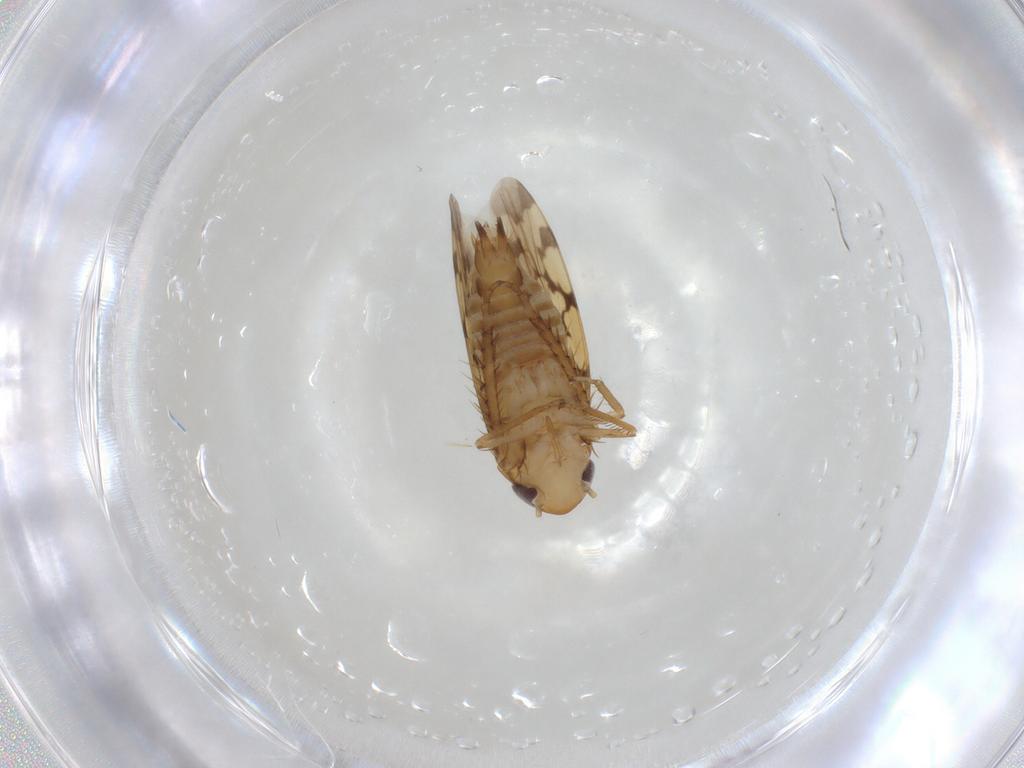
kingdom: Animalia
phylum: Arthropoda
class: Insecta
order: Diptera
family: Cecidomyiidae
